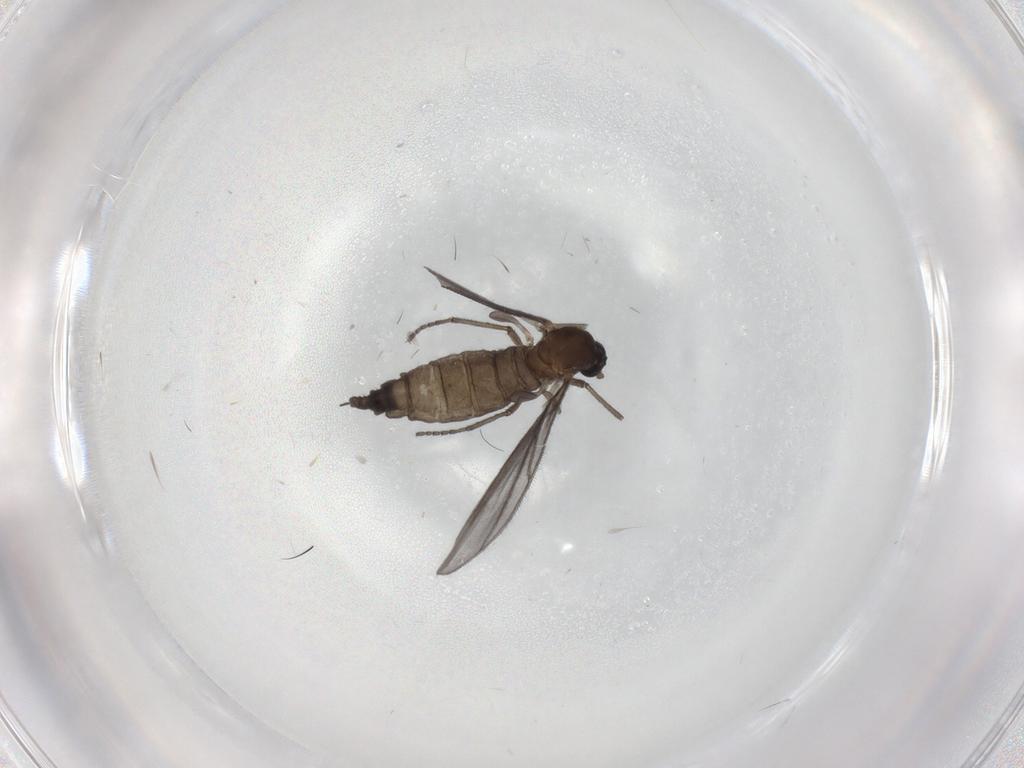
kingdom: Animalia
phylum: Arthropoda
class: Insecta
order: Diptera
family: Sciaridae
